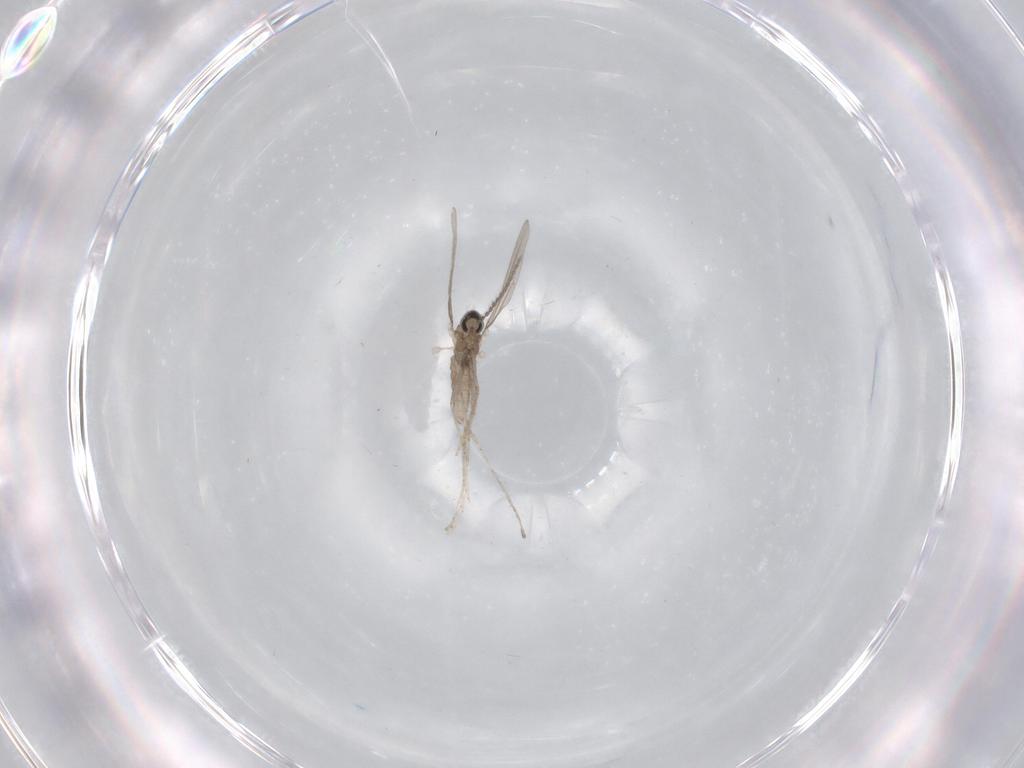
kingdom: Animalia
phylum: Arthropoda
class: Insecta
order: Diptera
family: Cecidomyiidae
